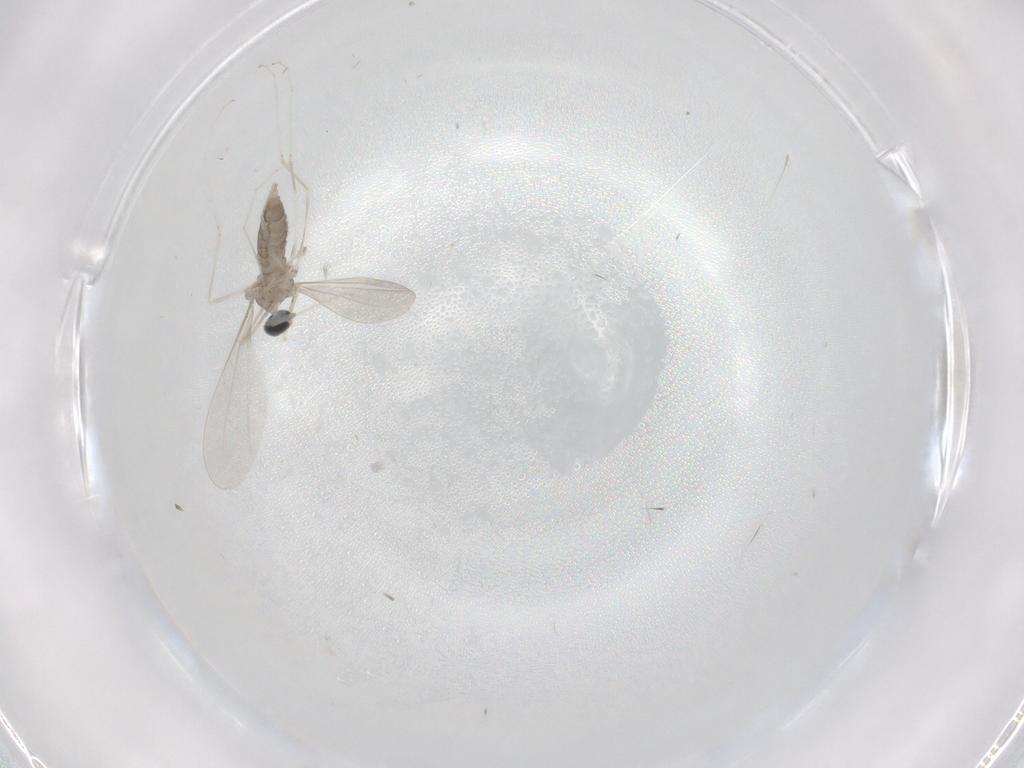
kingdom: Animalia
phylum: Arthropoda
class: Insecta
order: Diptera
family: Cecidomyiidae
